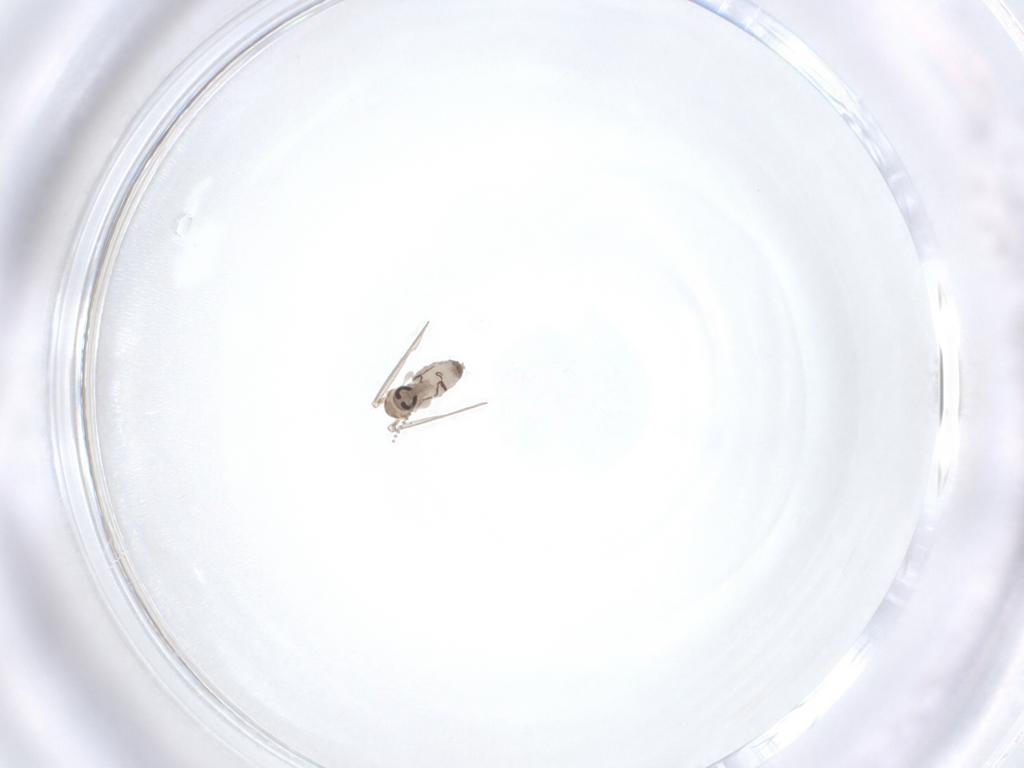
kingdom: Animalia
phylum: Arthropoda
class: Insecta
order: Diptera
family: Psychodidae
